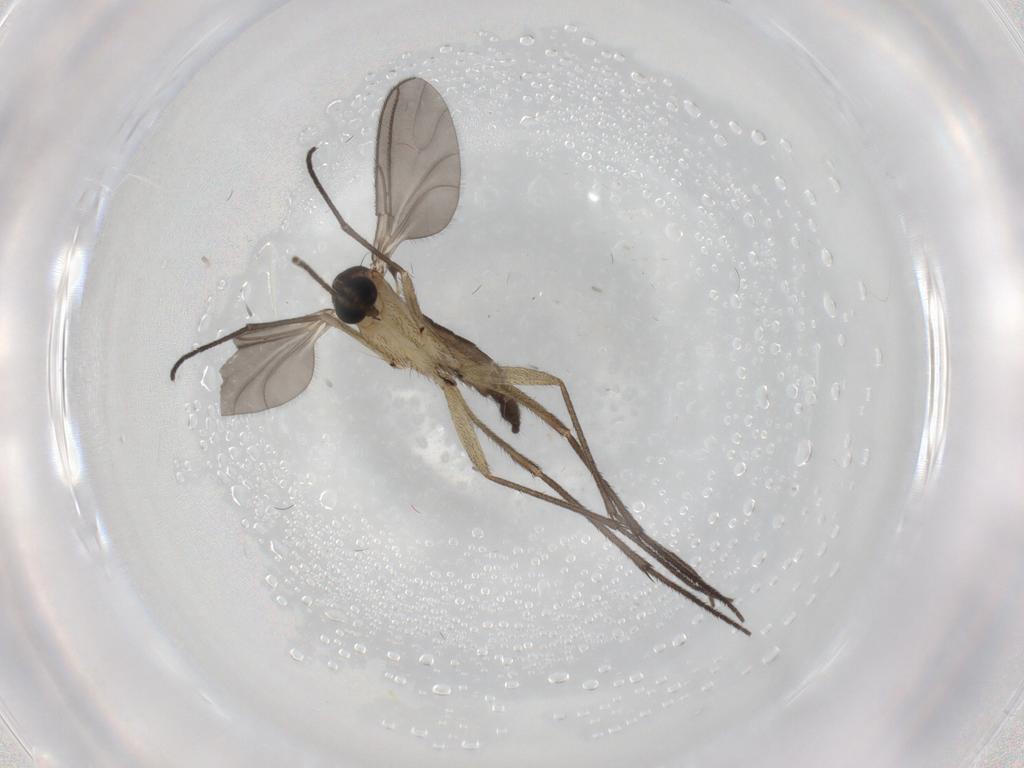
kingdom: Animalia
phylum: Arthropoda
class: Insecta
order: Diptera
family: Sciaridae
